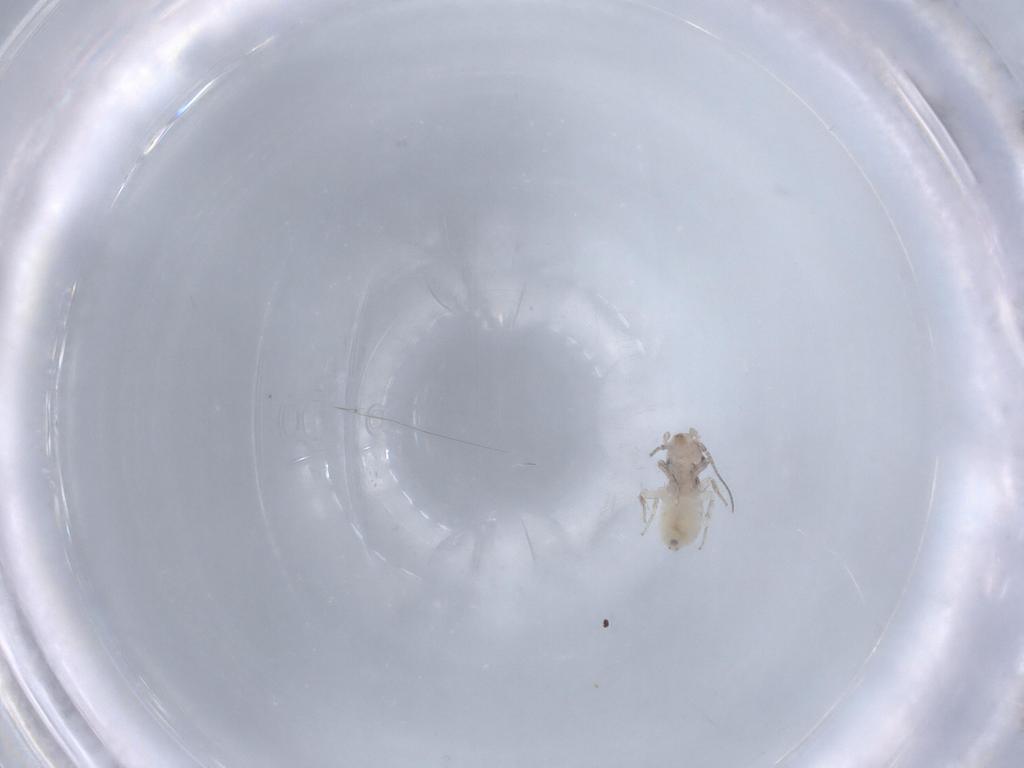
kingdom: Animalia
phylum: Arthropoda
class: Insecta
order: Psocodea
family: Lepidopsocidae
